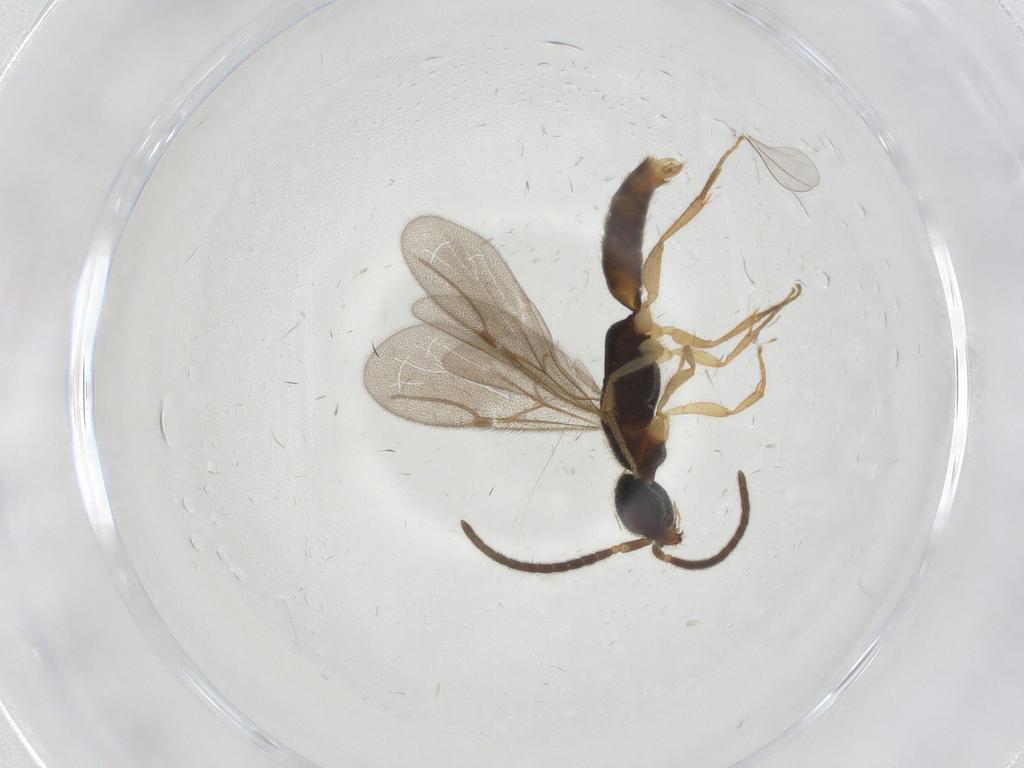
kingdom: Animalia
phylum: Arthropoda
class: Insecta
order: Hymenoptera
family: Bethylidae
